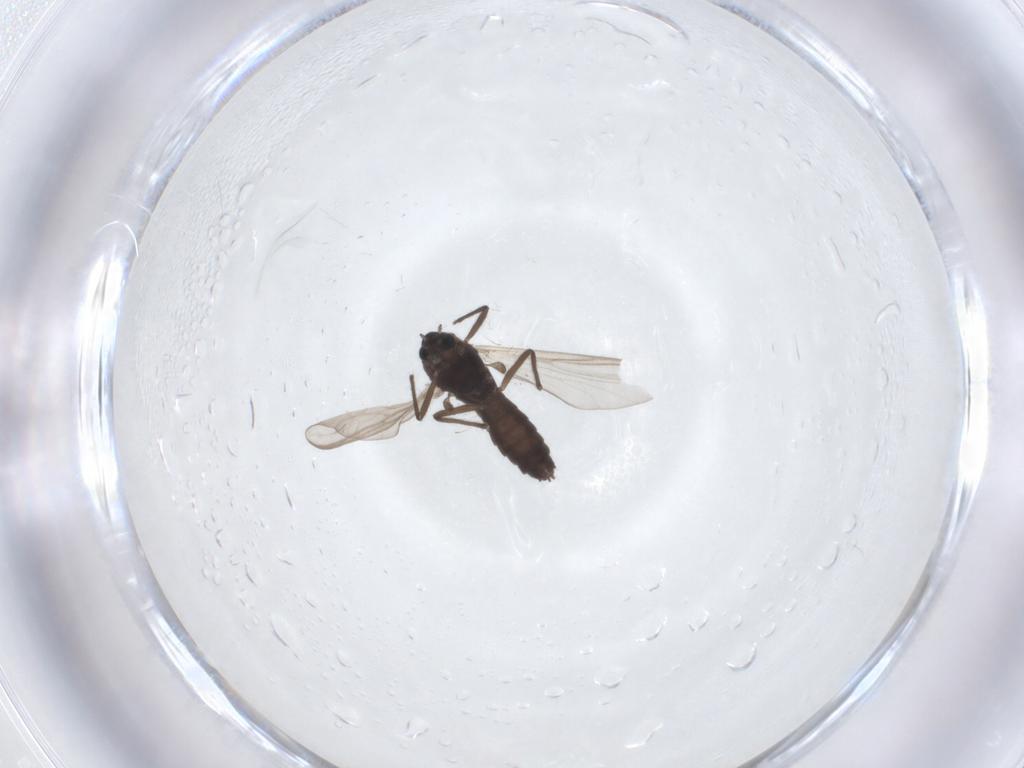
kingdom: Animalia
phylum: Arthropoda
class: Insecta
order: Diptera
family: Chironomidae
